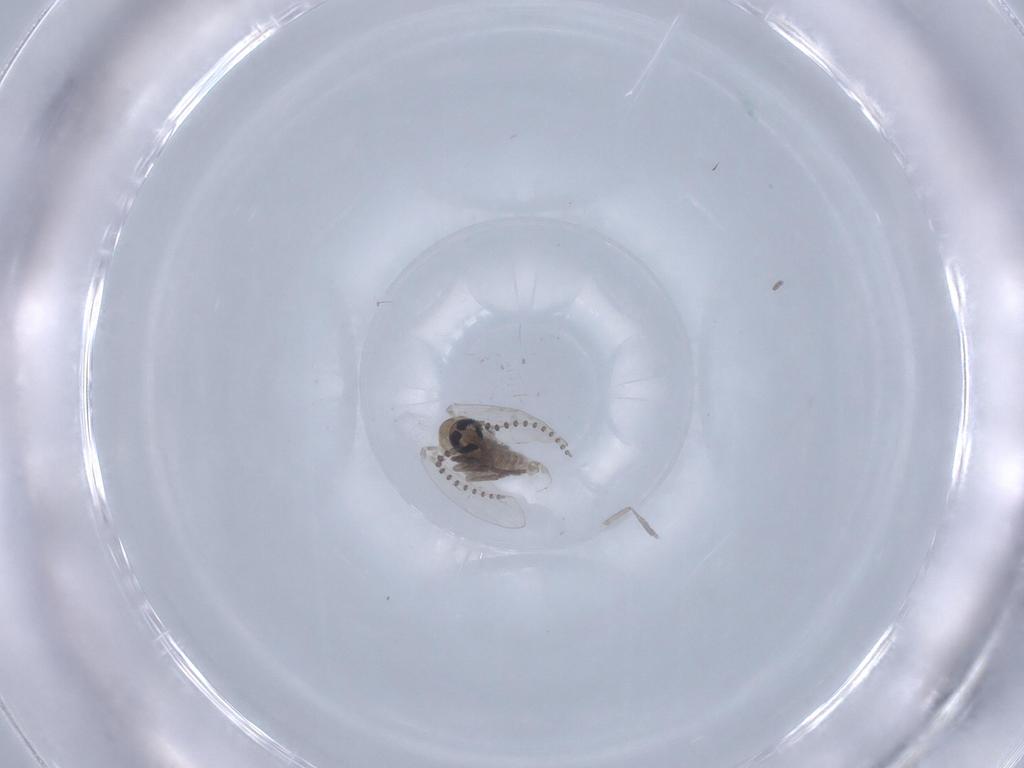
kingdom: Animalia
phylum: Arthropoda
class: Insecta
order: Diptera
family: Psychodidae
